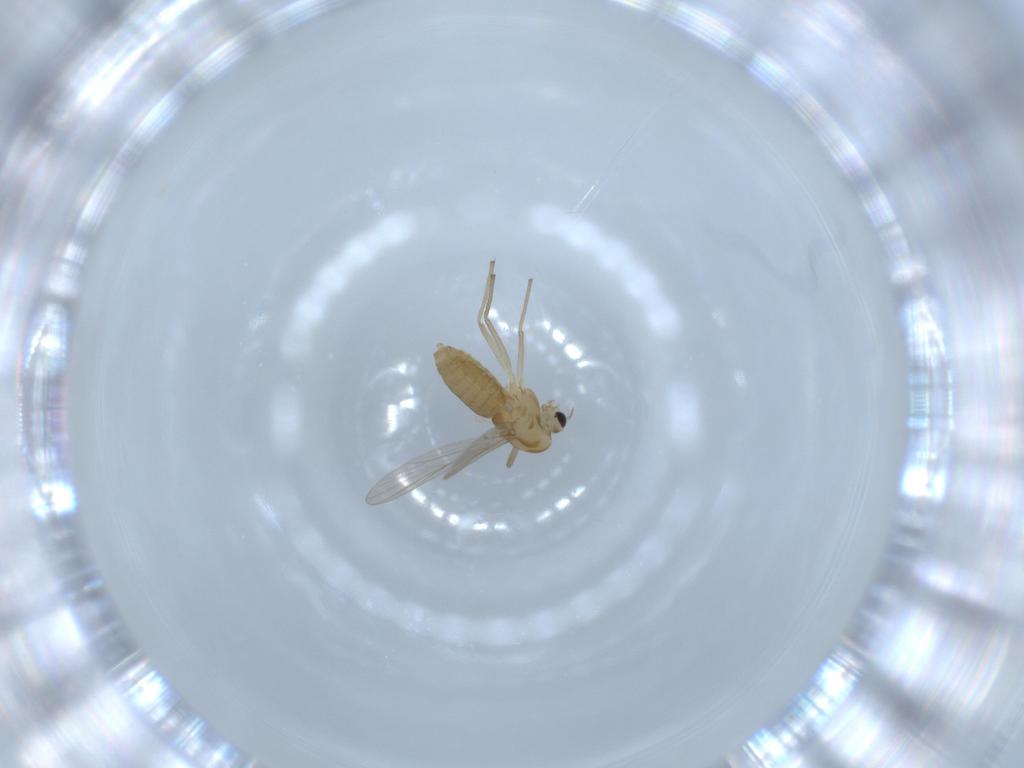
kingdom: Animalia
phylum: Arthropoda
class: Insecta
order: Diptera
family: Chironomidae
